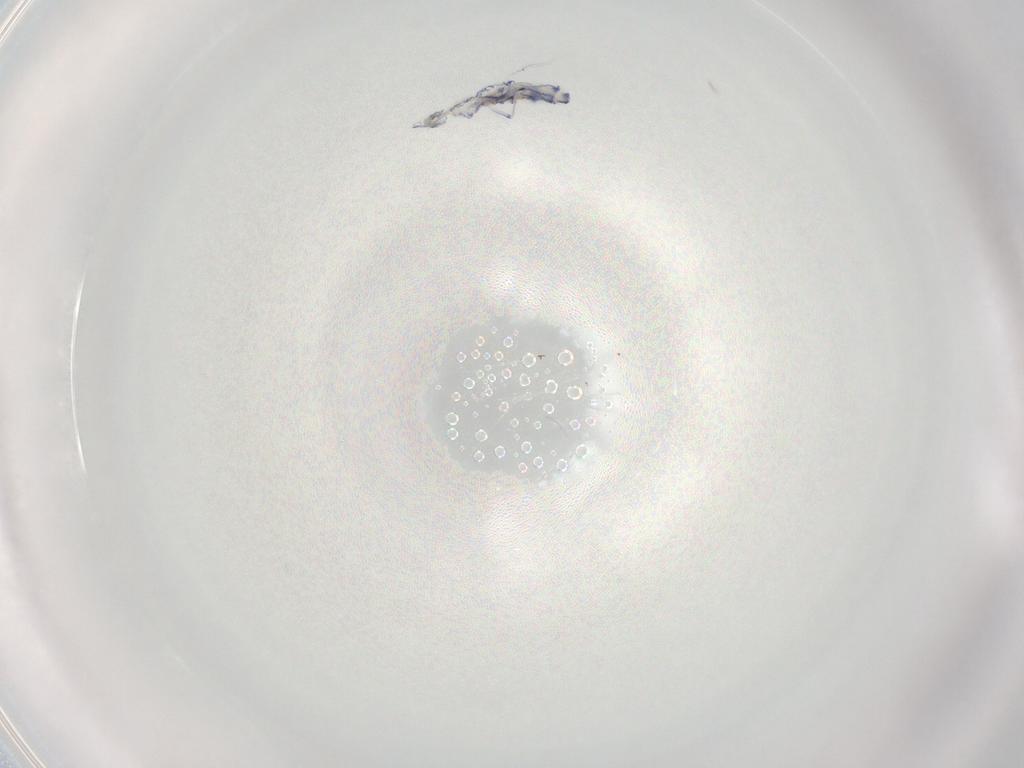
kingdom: Animalia
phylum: Arthropoda
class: Collembola
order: Entomobryomorpha
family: Entomobryidae
